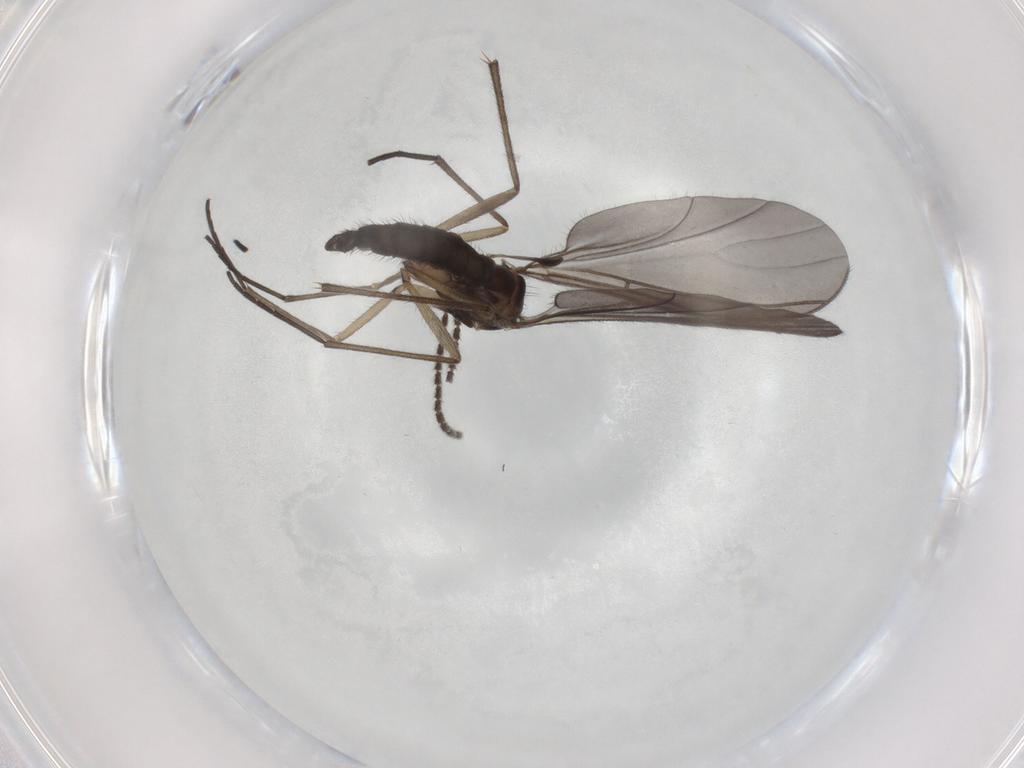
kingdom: Animalia
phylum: Arthropoda
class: Insecta
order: Diptera
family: Sciaridae
